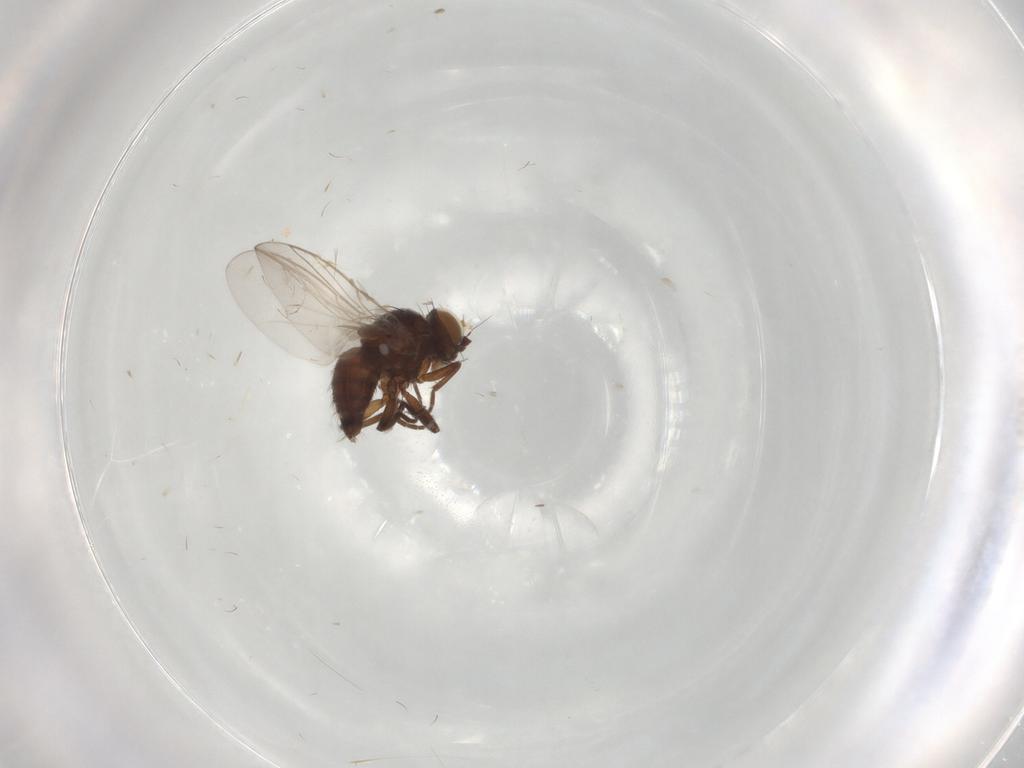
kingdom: Animalia
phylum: Arthropoda
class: Insecta
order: Diptera
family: Agromyzidae
